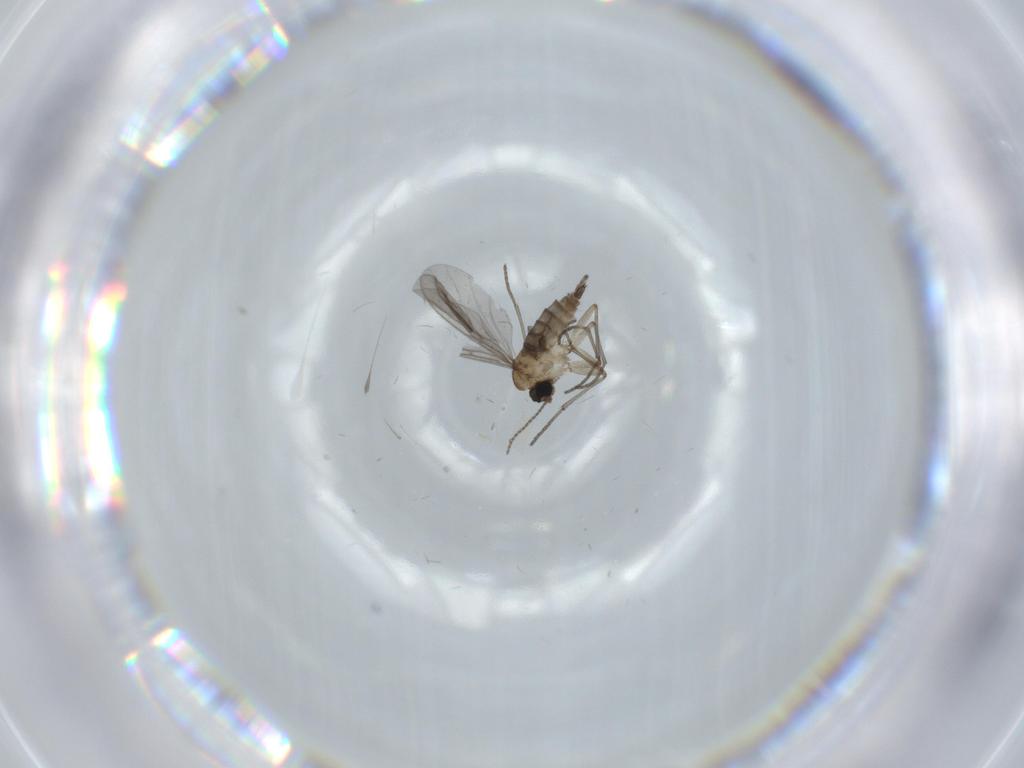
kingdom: Animalia
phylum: Arthropoda
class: Insecta
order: Diptera
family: Sciaridae
